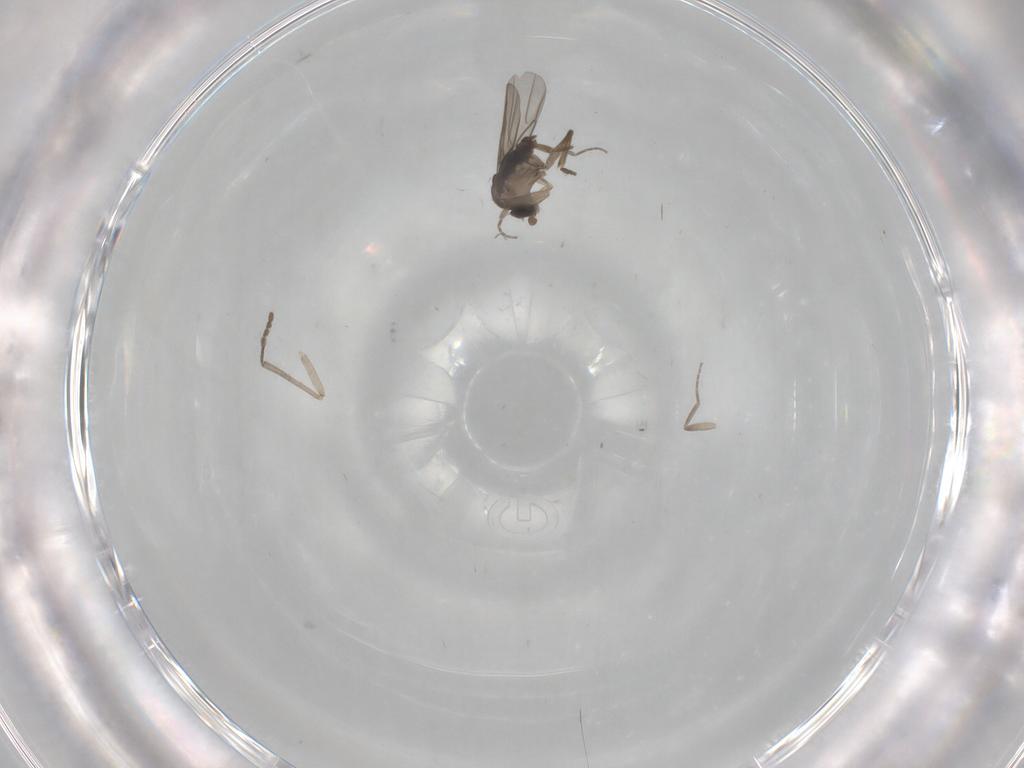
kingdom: Animalia
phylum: Arthropoda
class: Insecta
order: Diptera
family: Phoridae
